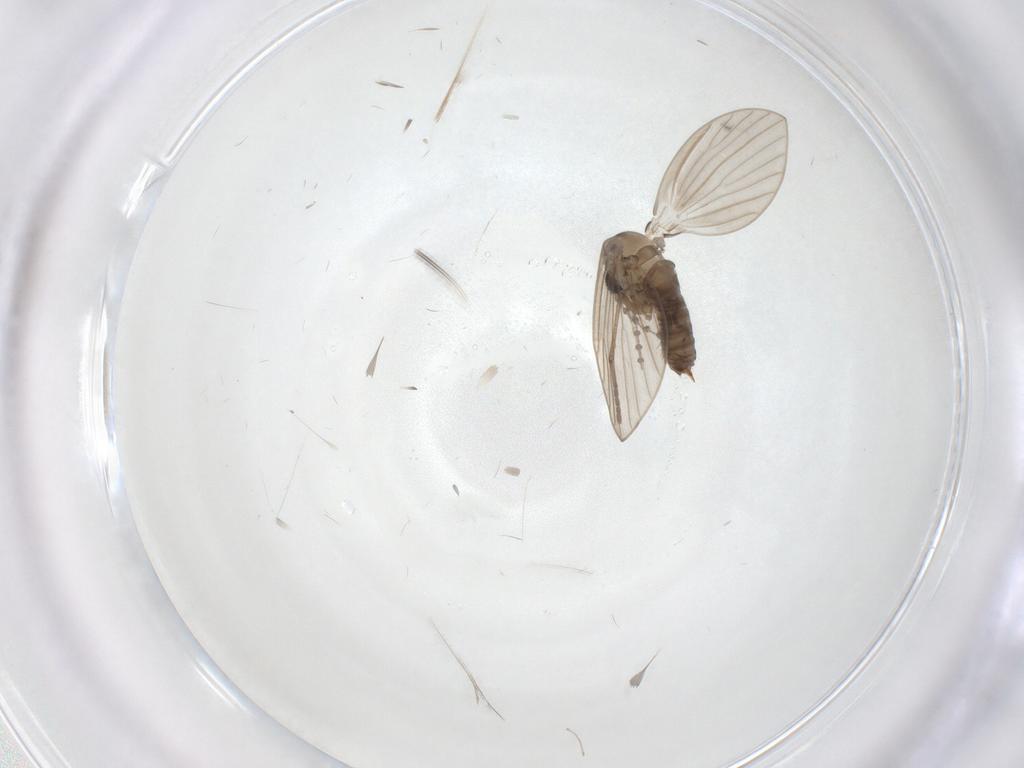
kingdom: Animalia
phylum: Arthropoda
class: Insecta
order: Diptera
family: Psychodidae
